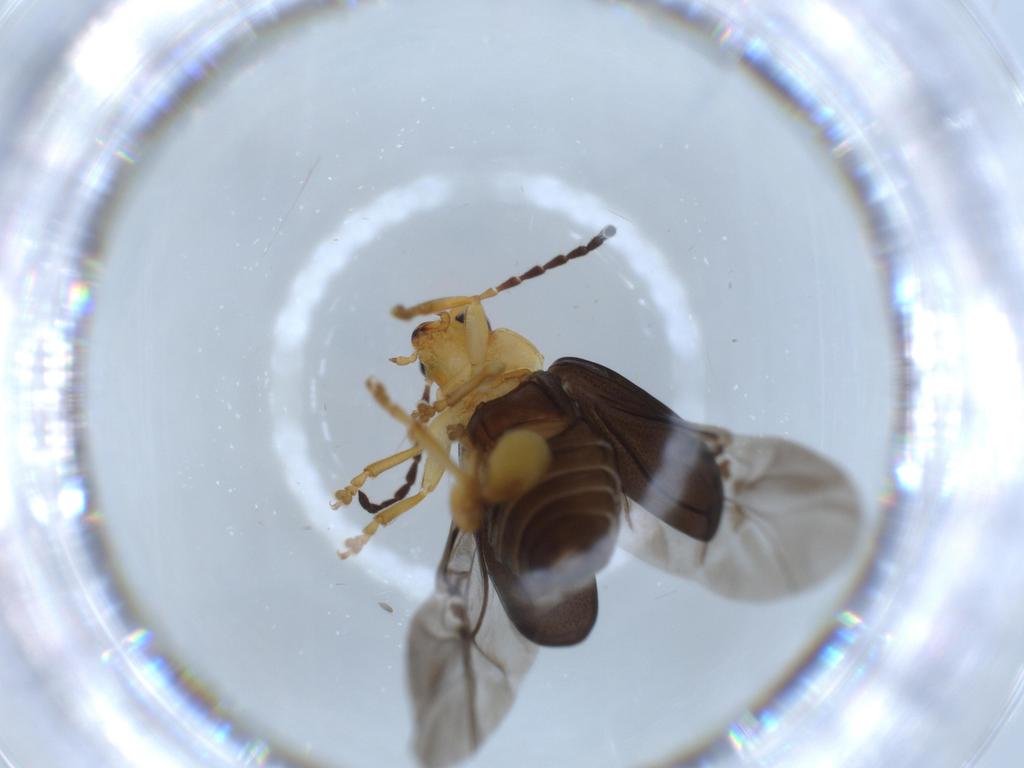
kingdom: Animalia
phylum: Arthropoda
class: Insecta
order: Coleoptera
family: Chrysomelidae
